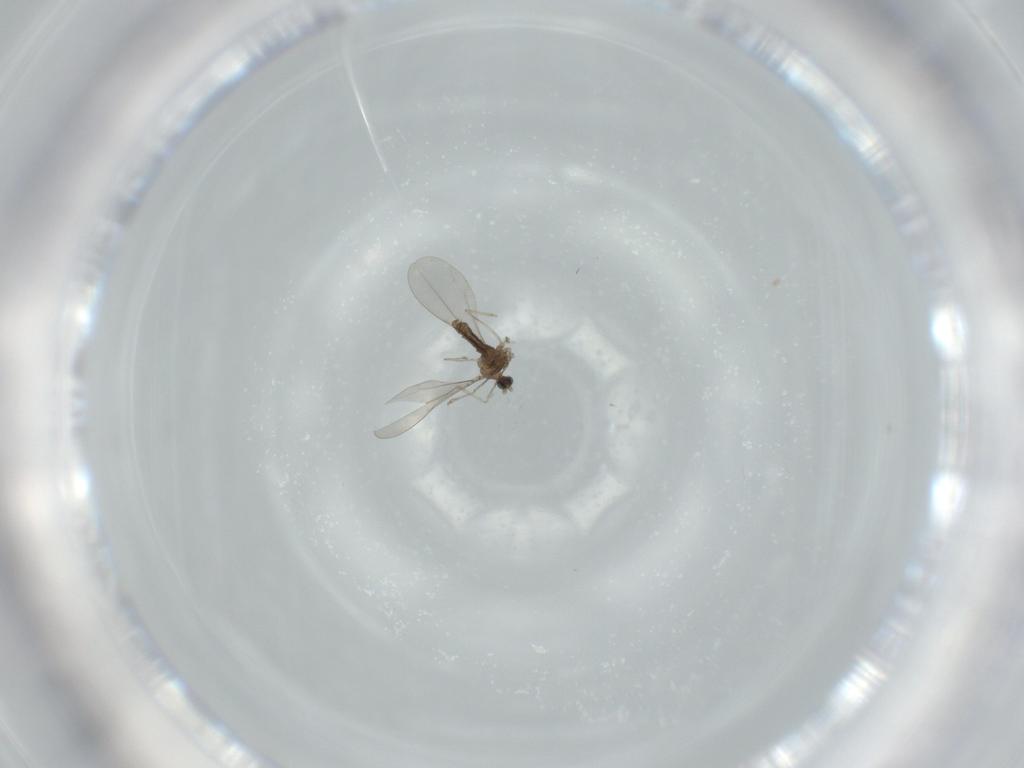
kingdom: Animalia
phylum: Arthropoda
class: Insecta
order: Diptera
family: Cecidomyiidae
